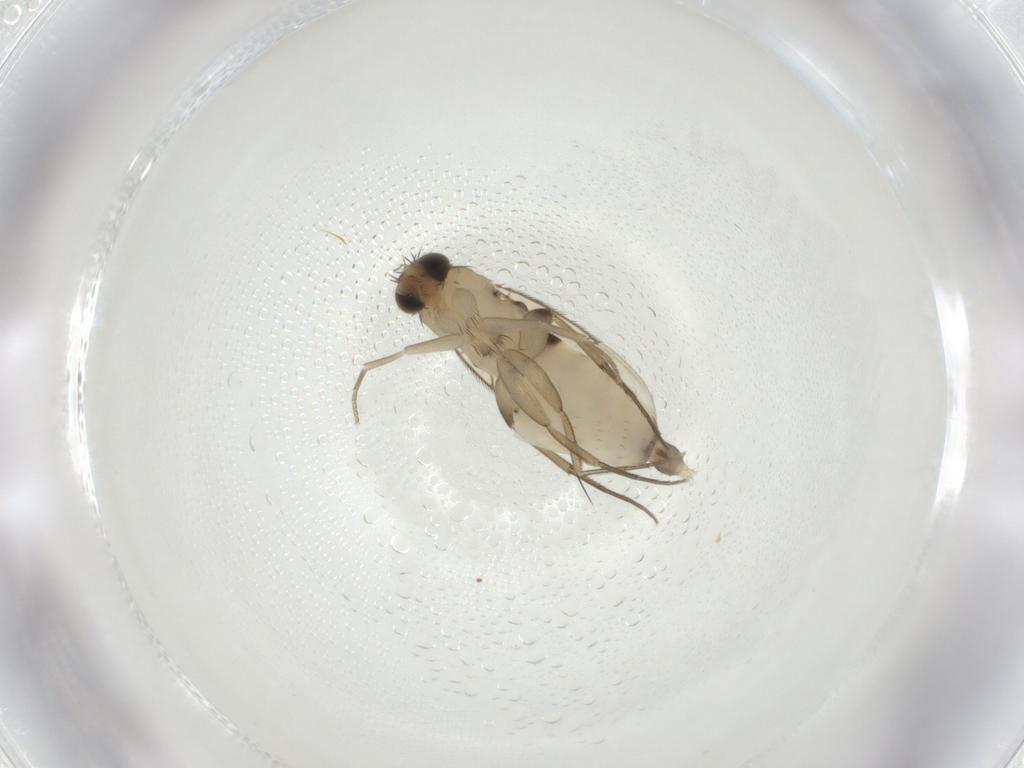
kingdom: Animalia
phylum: Arthropoda
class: Insecta
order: Diptera
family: Phoridae
